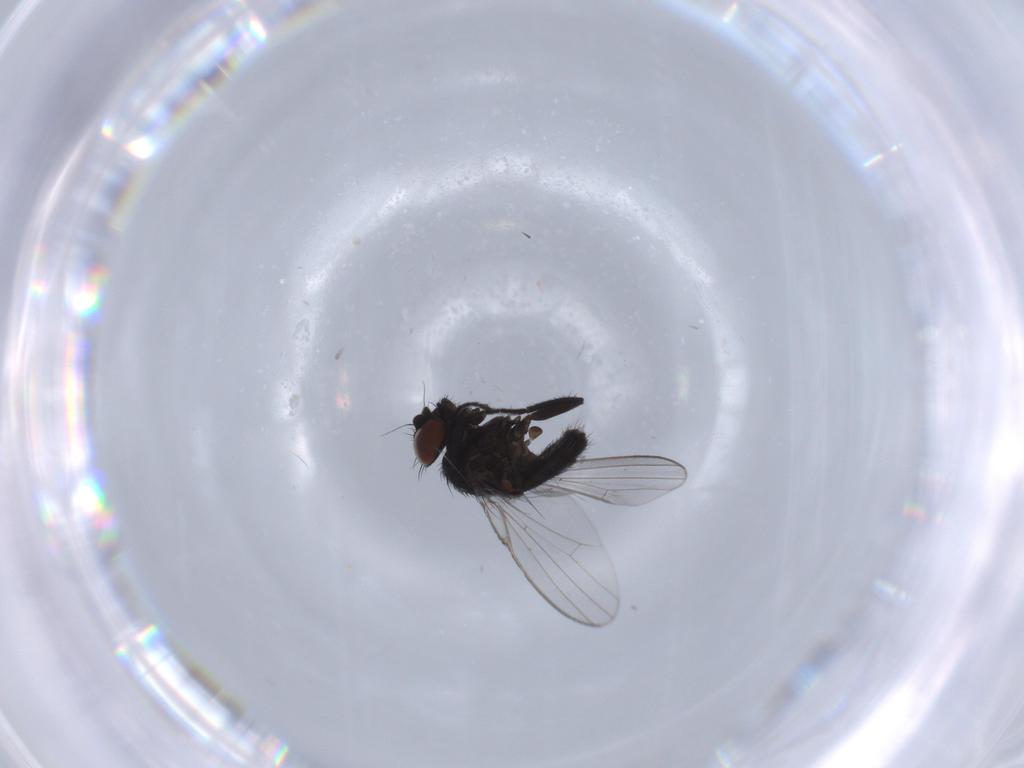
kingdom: Animalia
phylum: Arthropoda
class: Insecta
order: Diptera
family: Milichiidae
